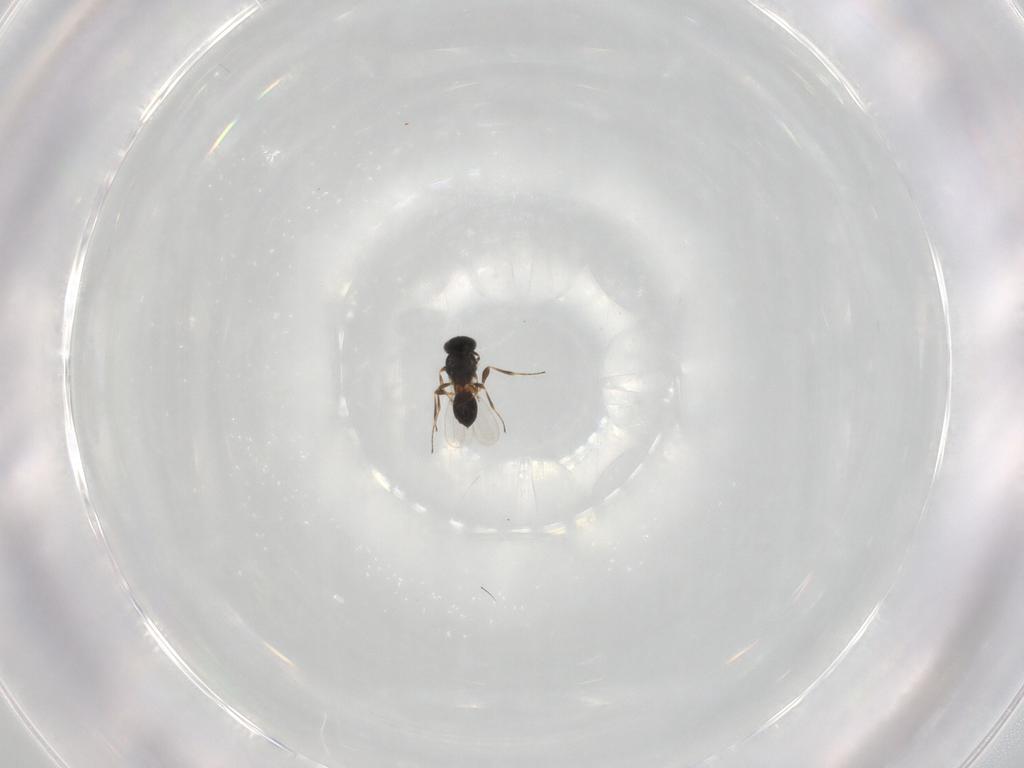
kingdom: Animalia
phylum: Arthropoda
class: Insecta
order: Hymenoptera
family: Platygastridae
